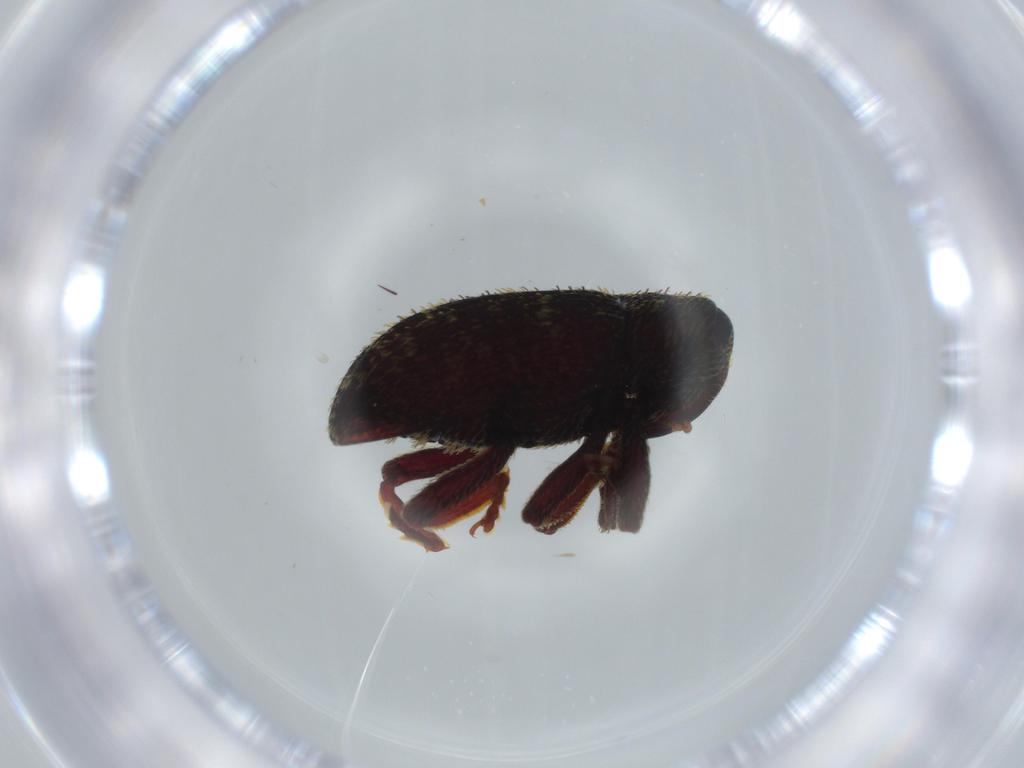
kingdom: Animalia
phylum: Arthropoda
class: Insecta
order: Coleoptera
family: Curculionidae
